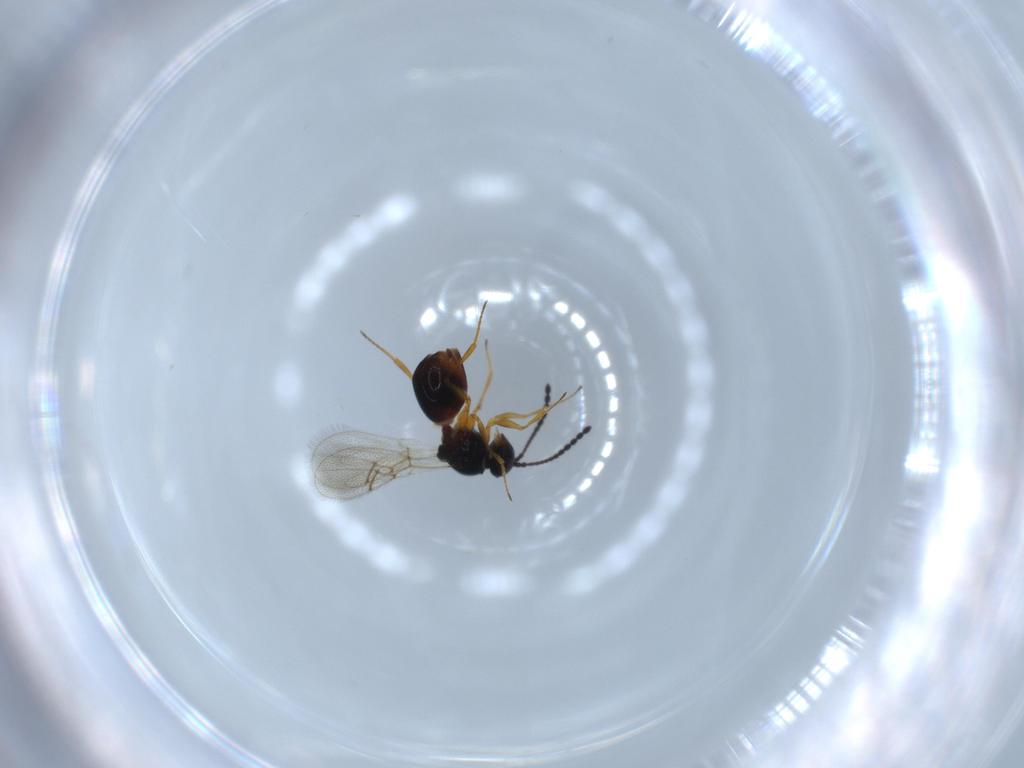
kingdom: Animalia
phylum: Arthropoda
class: Insecta
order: Hymenoptera
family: Figitidae
